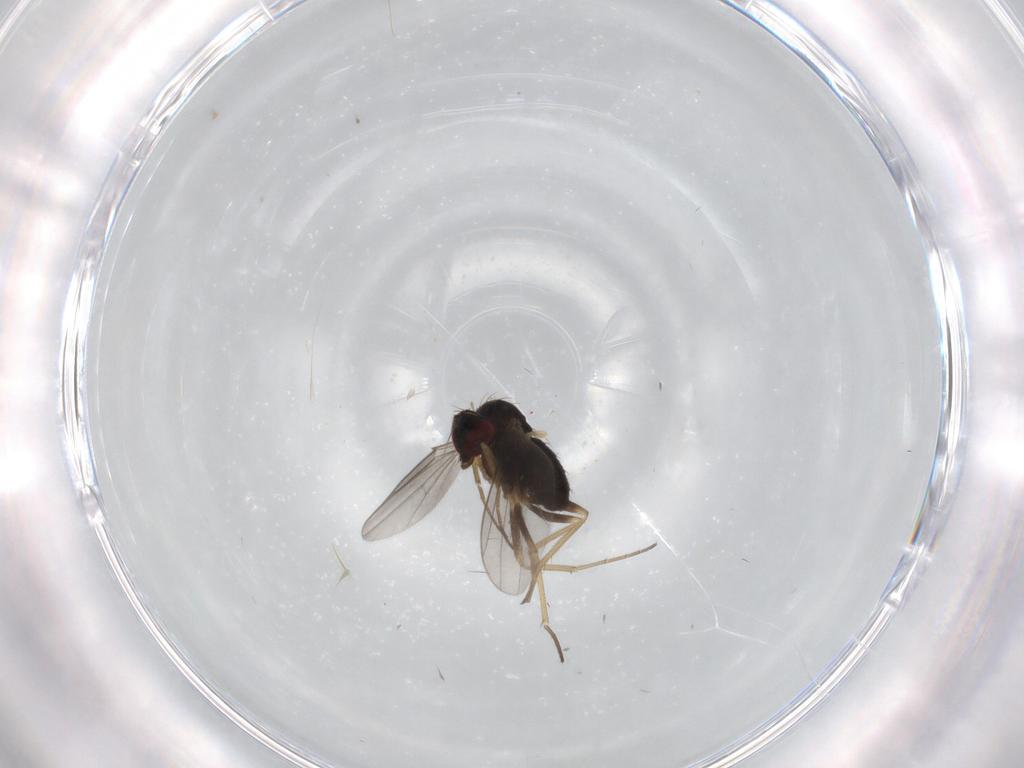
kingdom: Animalia
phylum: Arthropoda
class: Insecta
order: Diptera
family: Dolichopodidae
